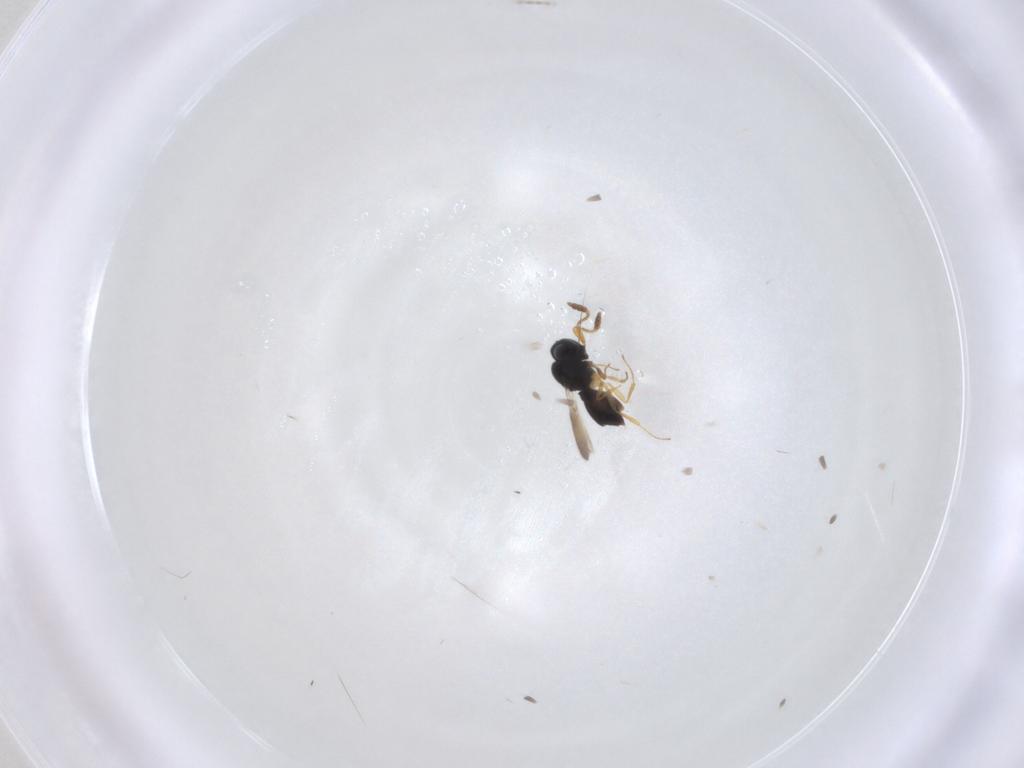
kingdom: Animalia
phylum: Arthropoda
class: Insecta
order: Hymenoptera
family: Scelionidae
